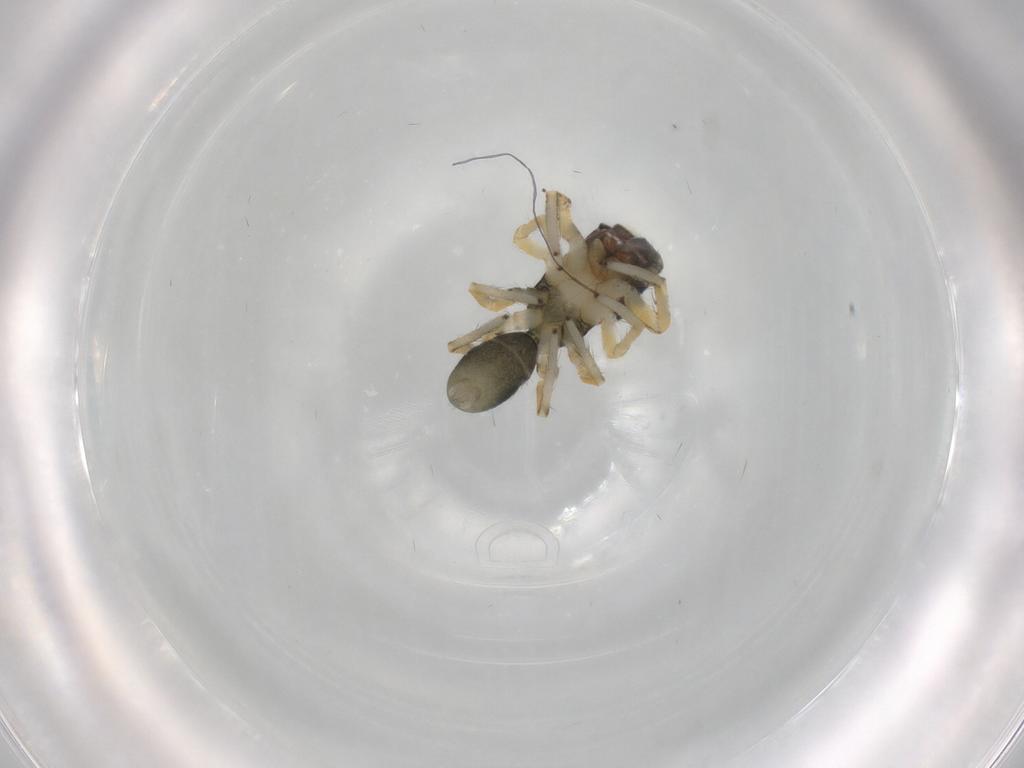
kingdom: Animalia
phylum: Arthropoda
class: Arachnida
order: Araneae
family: Salticidae
